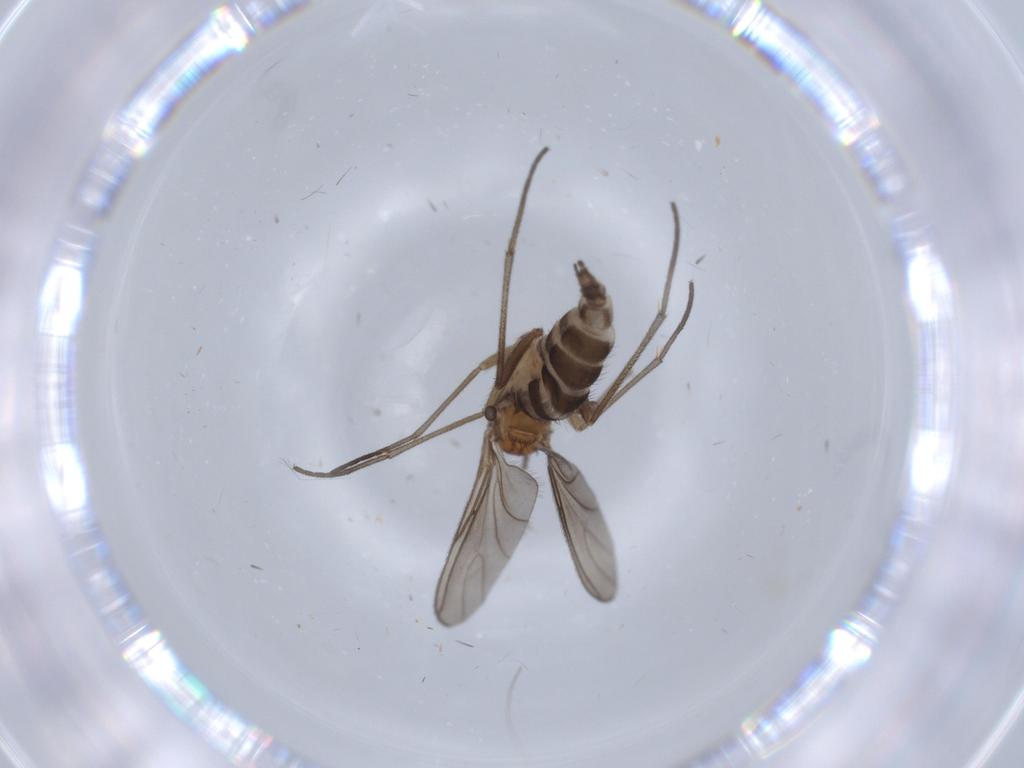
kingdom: Animalia
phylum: Arthropoda
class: Insecta
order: Diptera
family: Sciaridae
